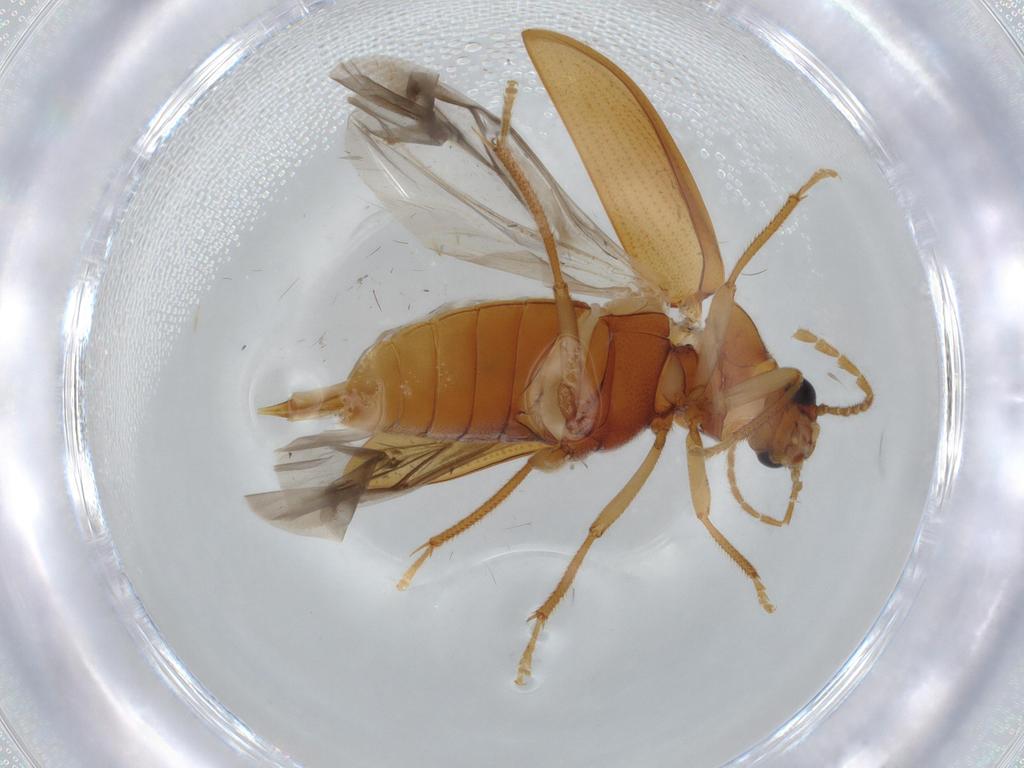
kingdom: Animalia
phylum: Arthropoda
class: Insecta
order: Coleoptera
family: Ptilodactylidae
